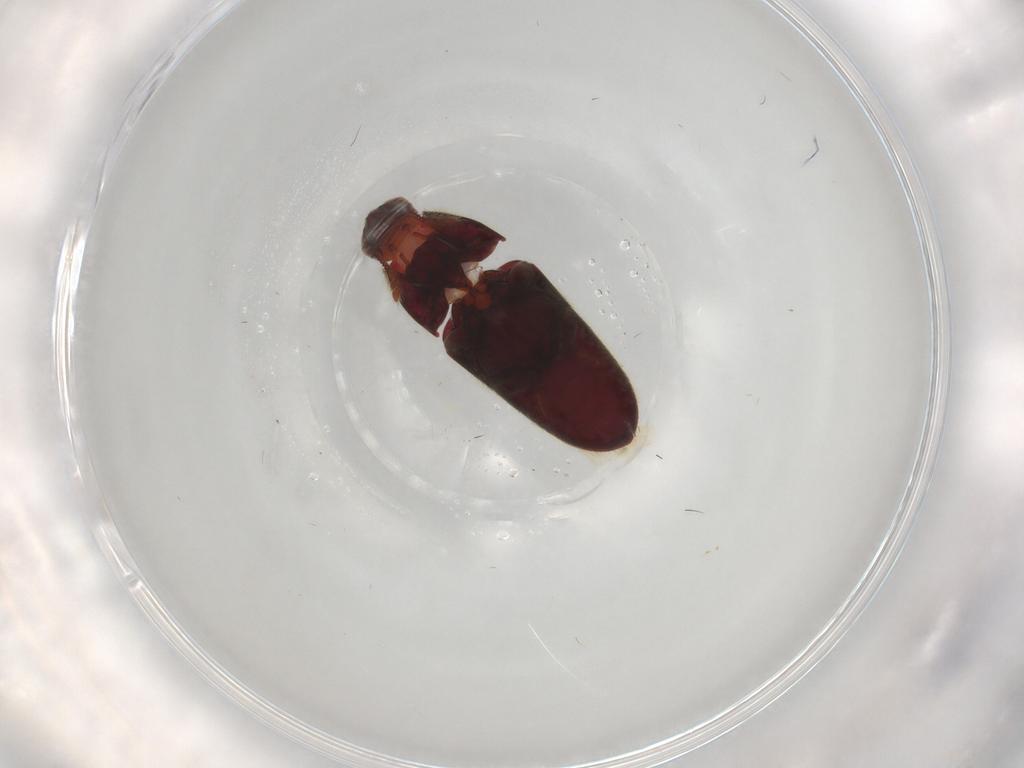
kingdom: Animalia
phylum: Arthropoda
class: Insecta
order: Coleoptera
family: Throscidae
